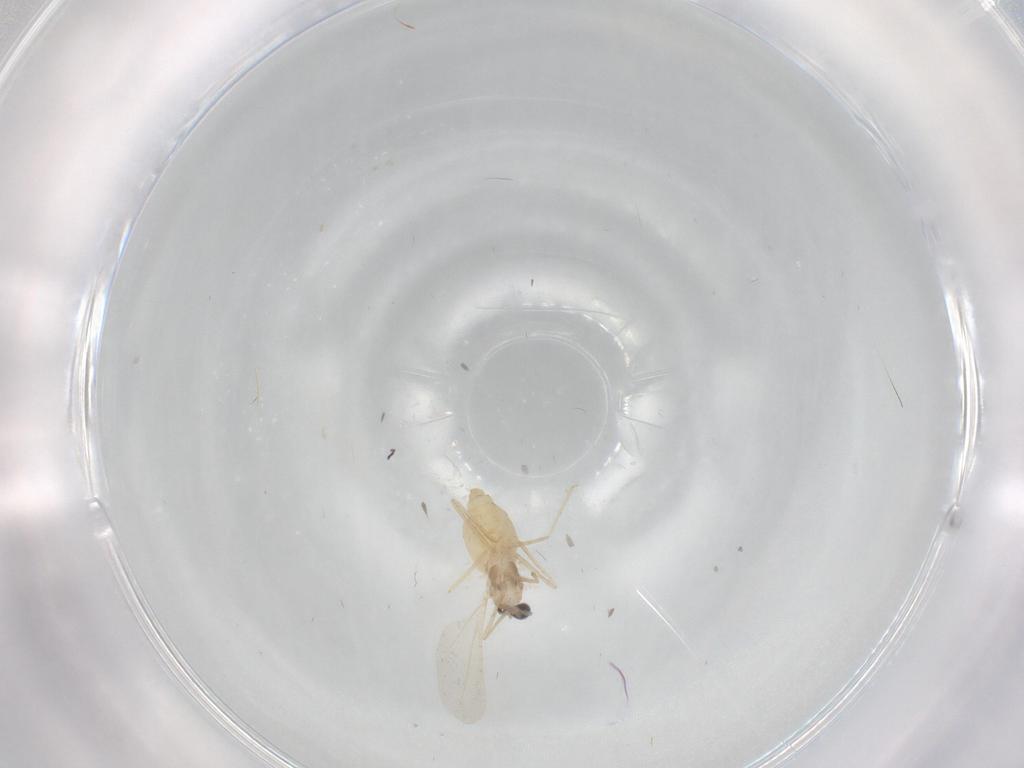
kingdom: Animalia
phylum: Arthropoda
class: Insecta
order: Diptera
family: Cecidomyiidae
